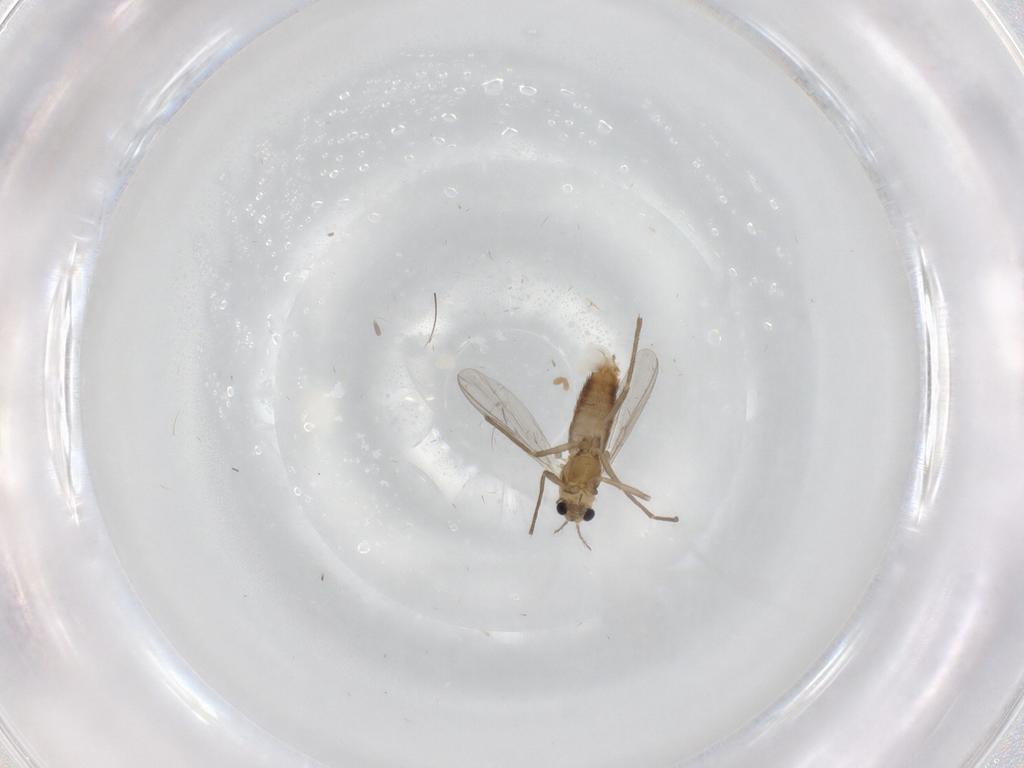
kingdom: Animalia
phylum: Arthropoda
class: Insecta
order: Diptera
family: Chironomidae
